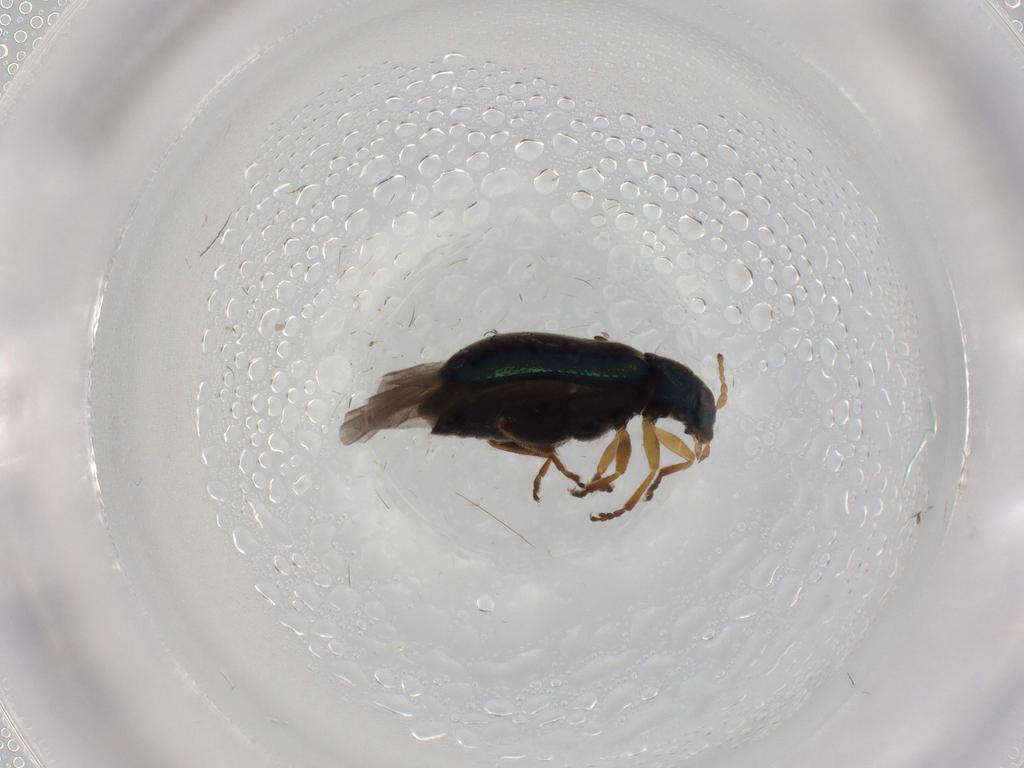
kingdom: Animalia
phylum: Arthropoda
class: Insecta
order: Coleoptera
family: Chrysomelidae
